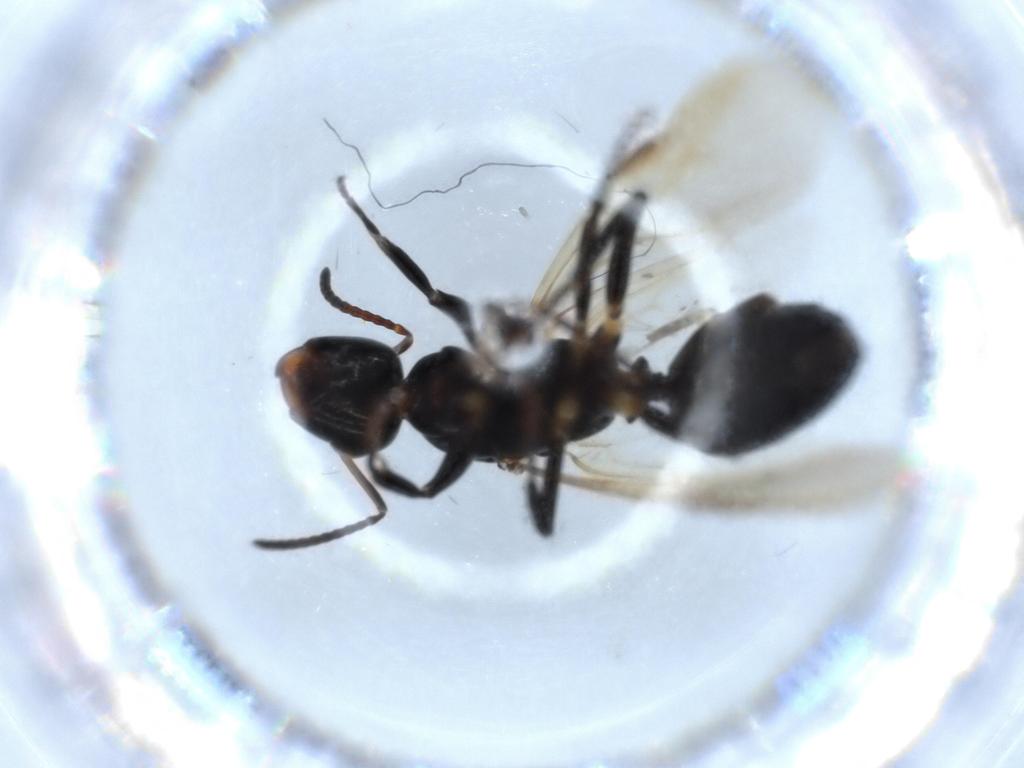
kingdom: Animalia
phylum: Arthropoda
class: Insecta
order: Hymenoptera
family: Formicidae
